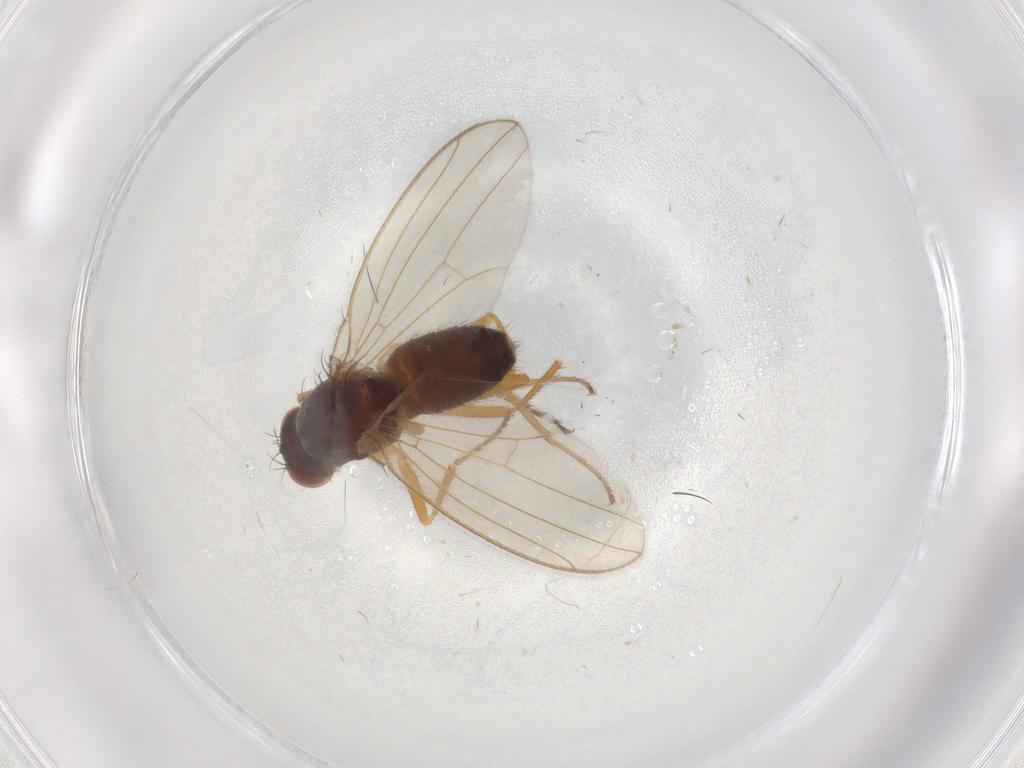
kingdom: Animalia
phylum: Arthropoda
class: Insecta
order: Diptera
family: Drosophilidae
